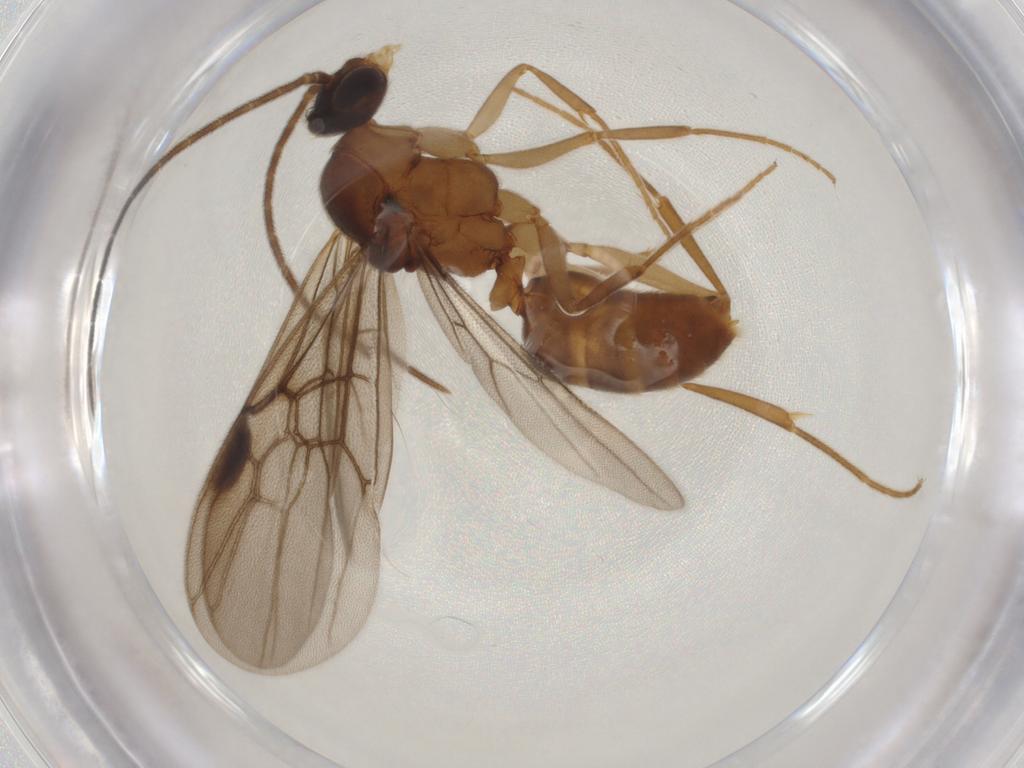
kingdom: Animalia
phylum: Arthropoda
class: Insecta
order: Hymenoptera
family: Formicidae
